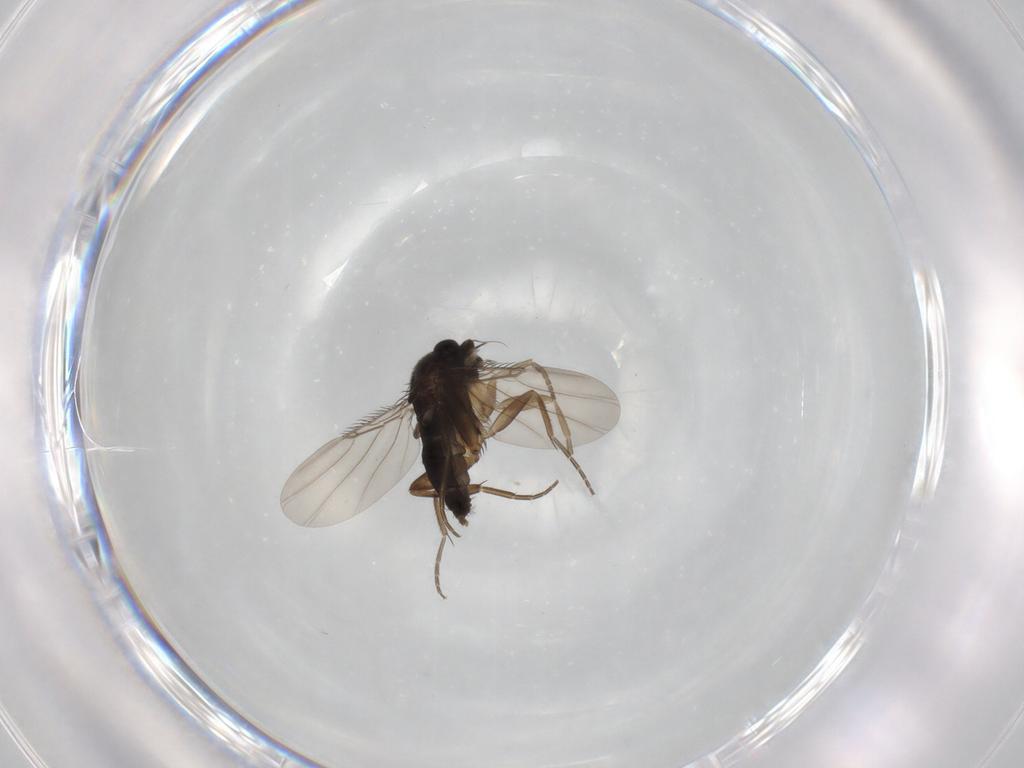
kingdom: Animalia
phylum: Arthropoda
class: Insecta
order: Diptera
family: Phoridae
